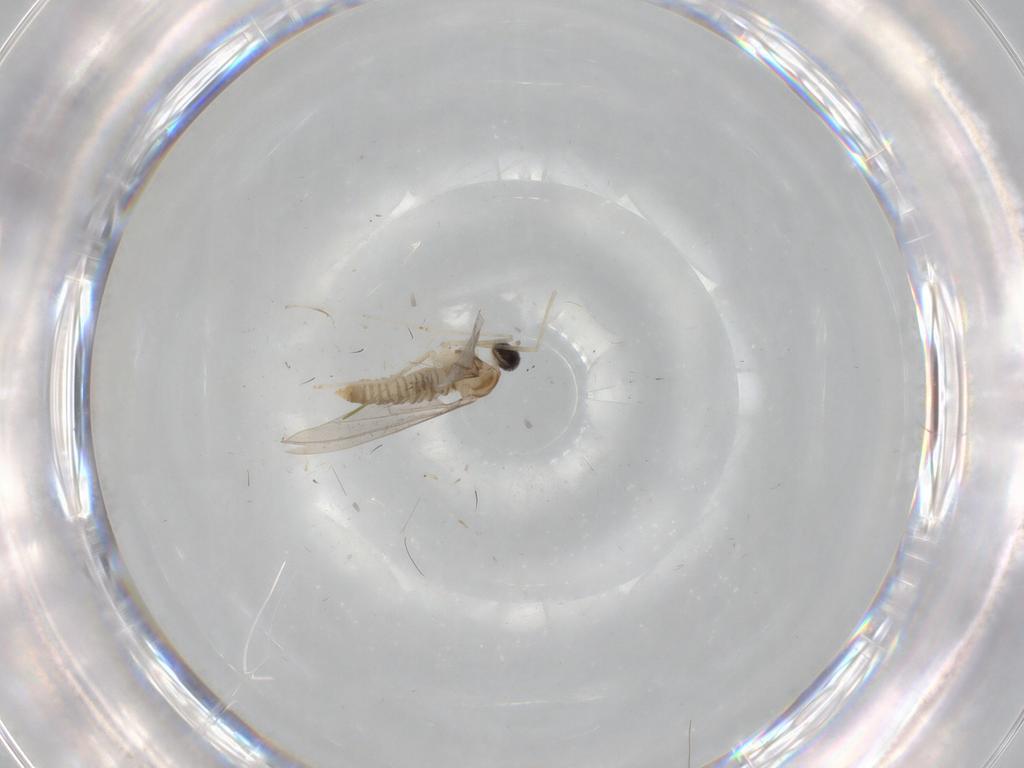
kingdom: Animalia
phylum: Arthropoda
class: Insecta
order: Diptera
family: Cecidomyiidae
